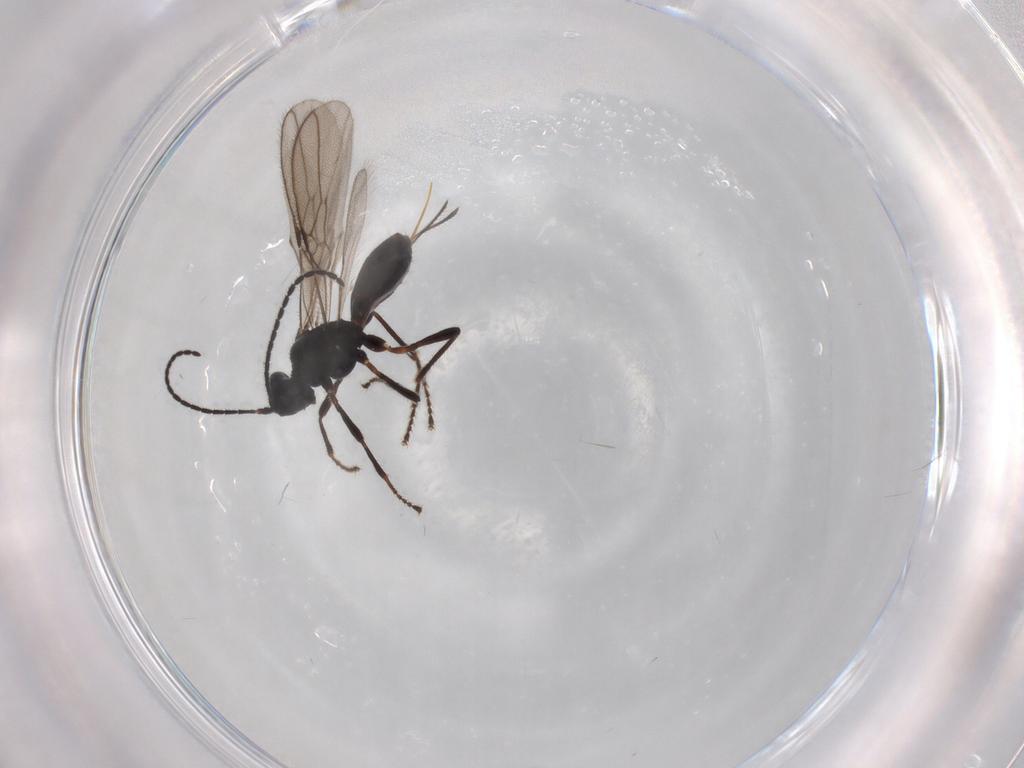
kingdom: Animalia
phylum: Arthropoda
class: Insecta
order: Hymenoptera
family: Braconidae
